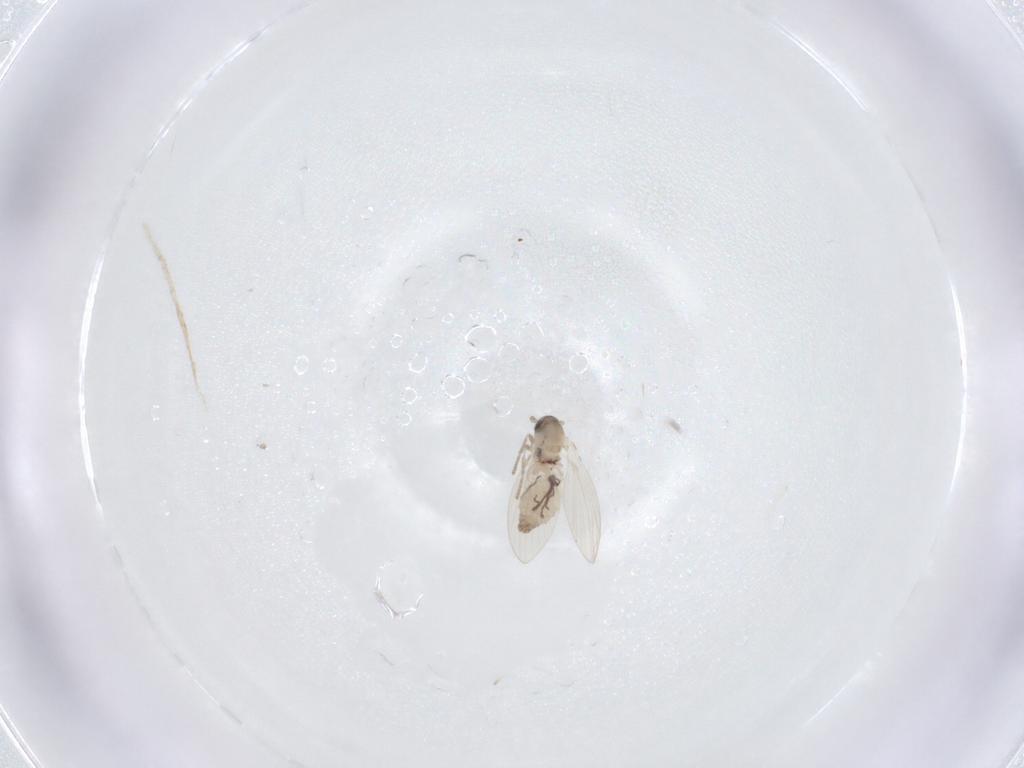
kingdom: Animalia
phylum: Arthropoda
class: Insecta
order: Diptera
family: Psychodidae
